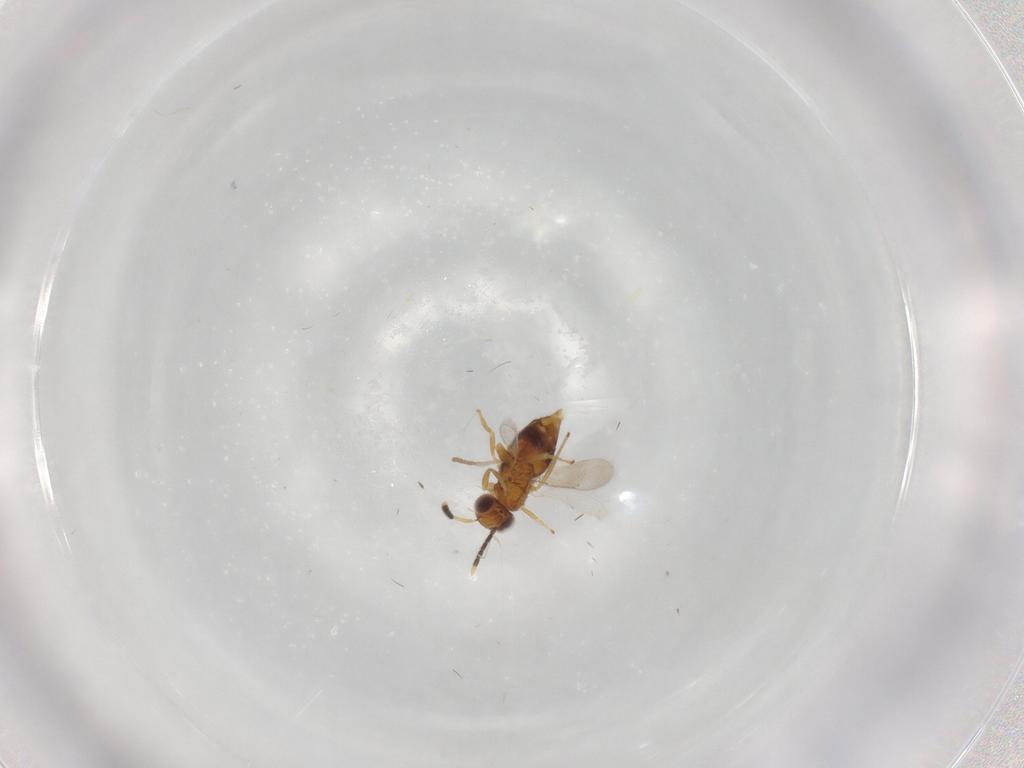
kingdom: Animalia
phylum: Arthropoda
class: Insecta
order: Hymenoptera
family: Aphelinidae
